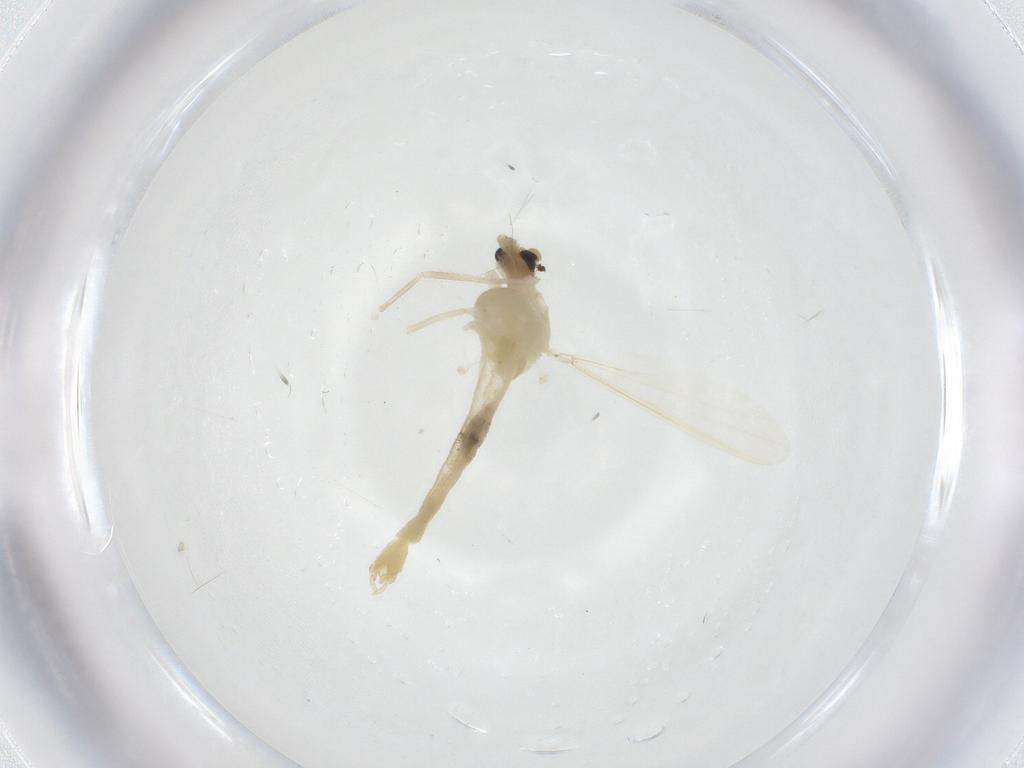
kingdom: Animalia
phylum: Arthropoda
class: Insecta
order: Diptera
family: Chironomidae
